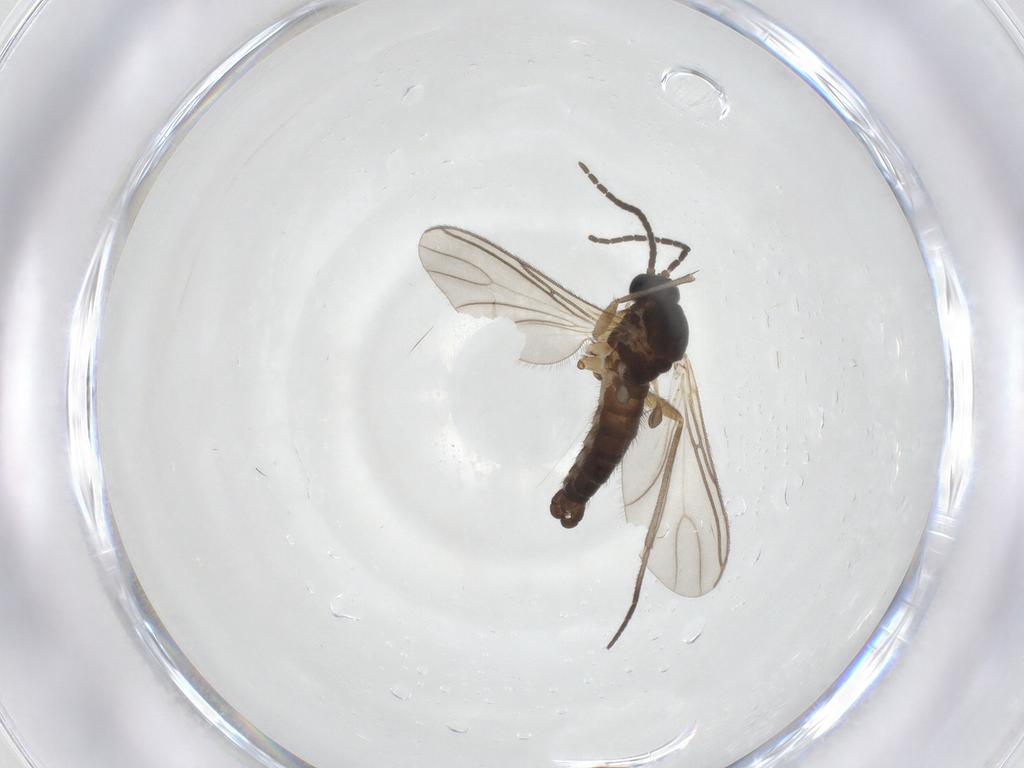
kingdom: Animalia
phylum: Arthropoda
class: Insecta
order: Diptera
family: Sciaridae
